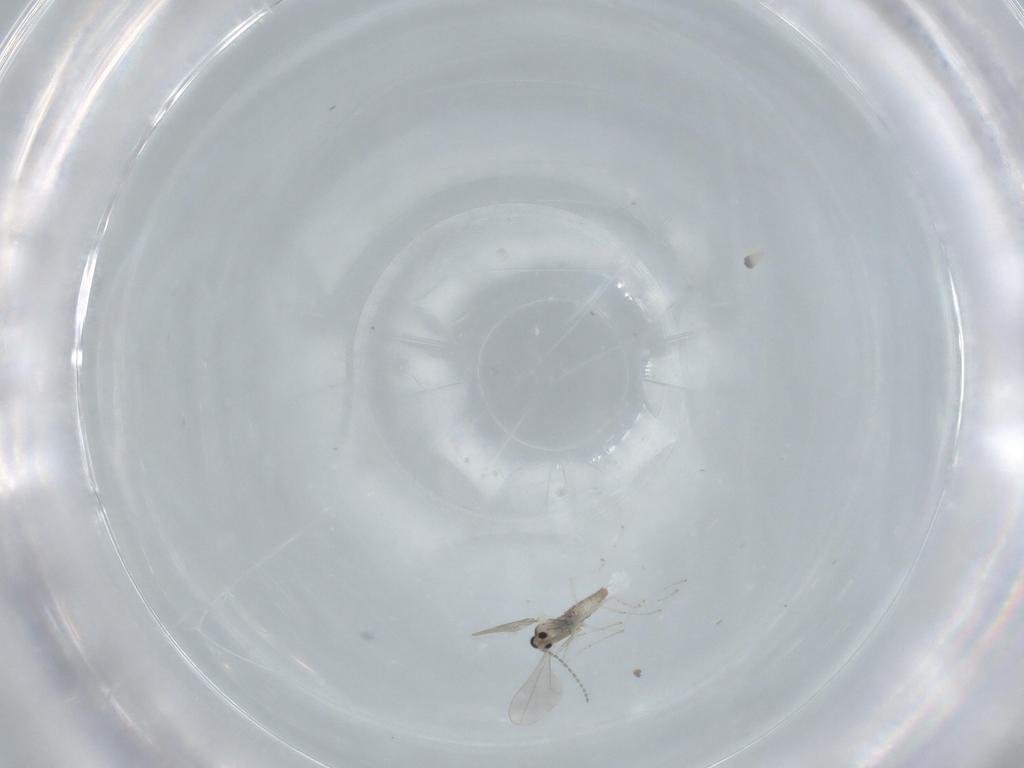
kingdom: Animalia
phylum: Arthropoda
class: Insecta
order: Diptera
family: Cecidomyiidae
